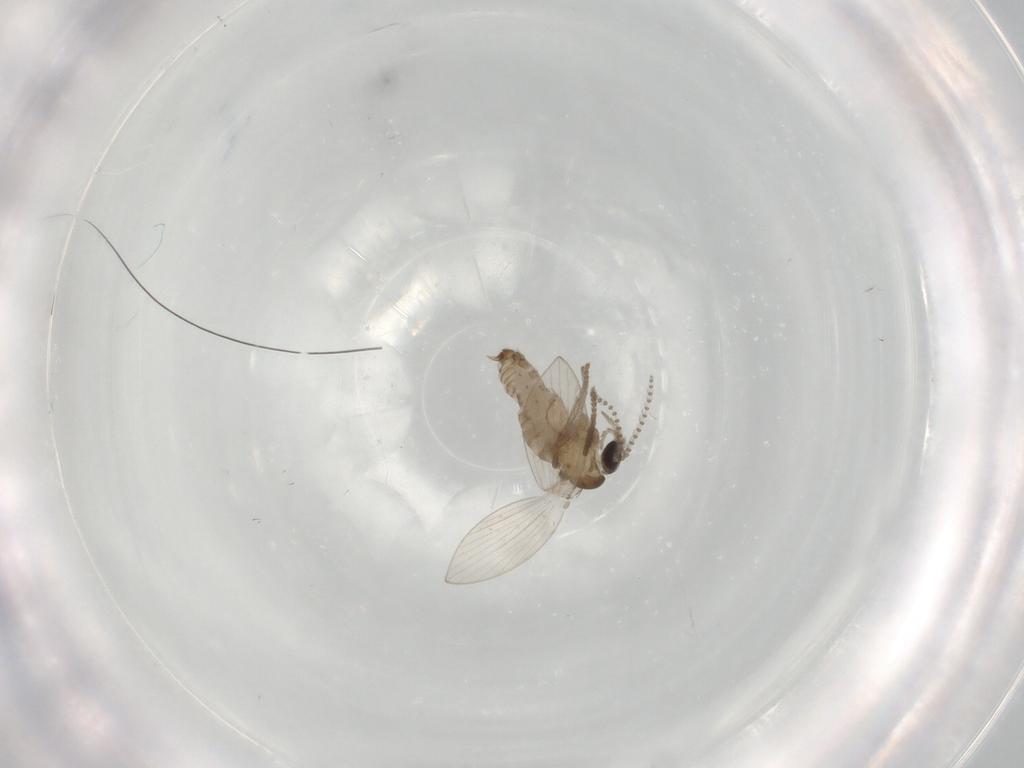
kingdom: Animalia
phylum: Arthropoda
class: Insecta
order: Diptera
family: Psychodidae
